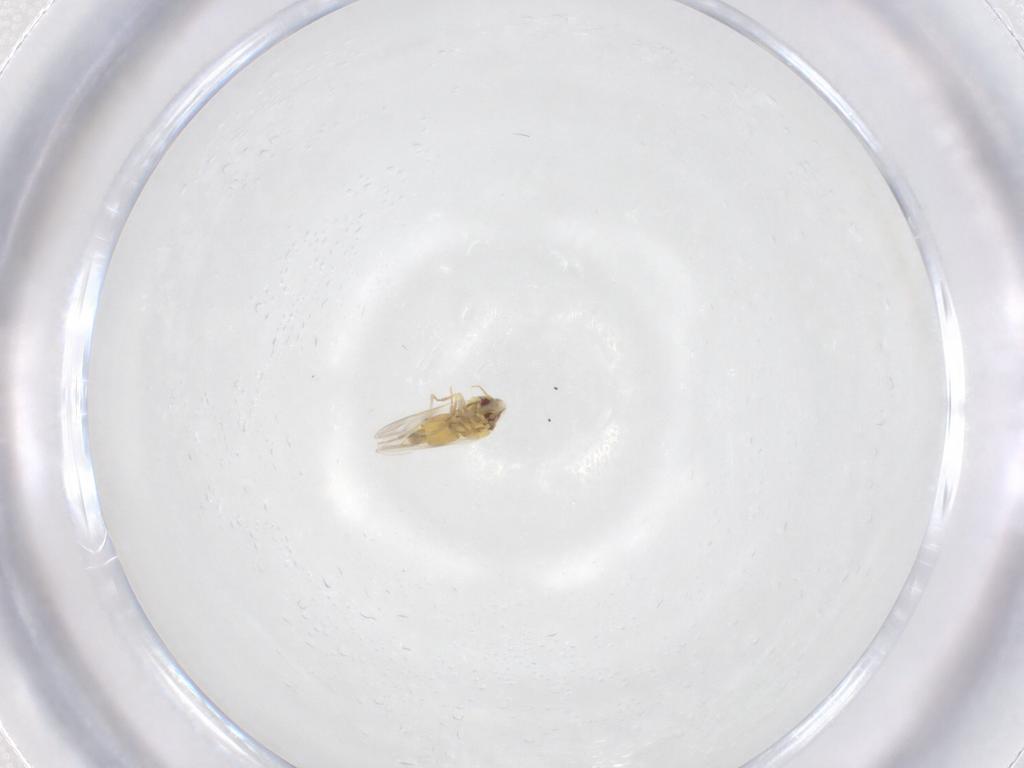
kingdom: Animalia
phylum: Arthropoda
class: Insecta
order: Hemiptera
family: Aleyrodidae
